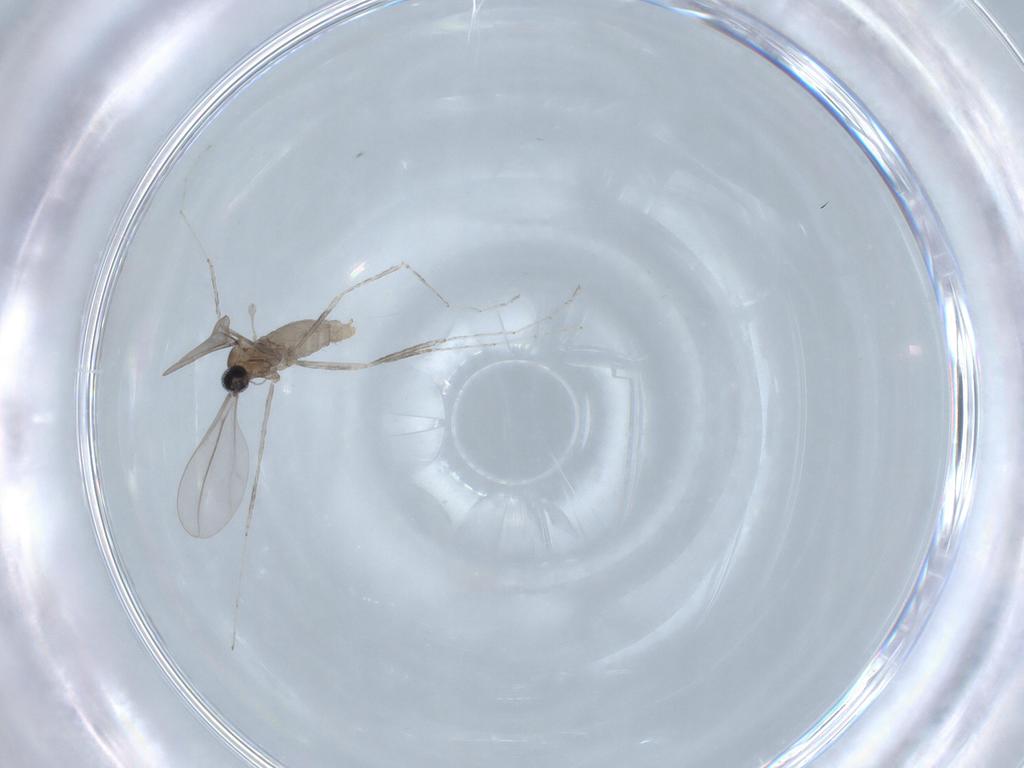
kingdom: Animalia
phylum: Arthropoda
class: Insecta
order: Diptera
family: Cecidomyiidae
